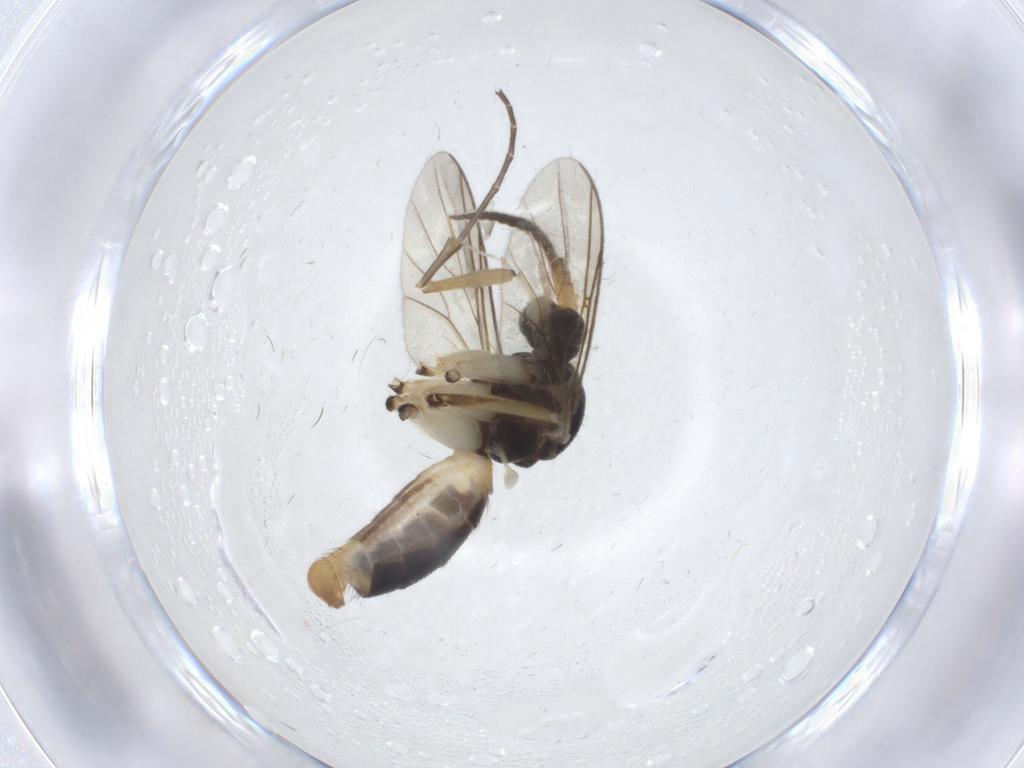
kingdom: Animalia
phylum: Arthropoda
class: Insecta
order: Diptera
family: Mycetophilidae
